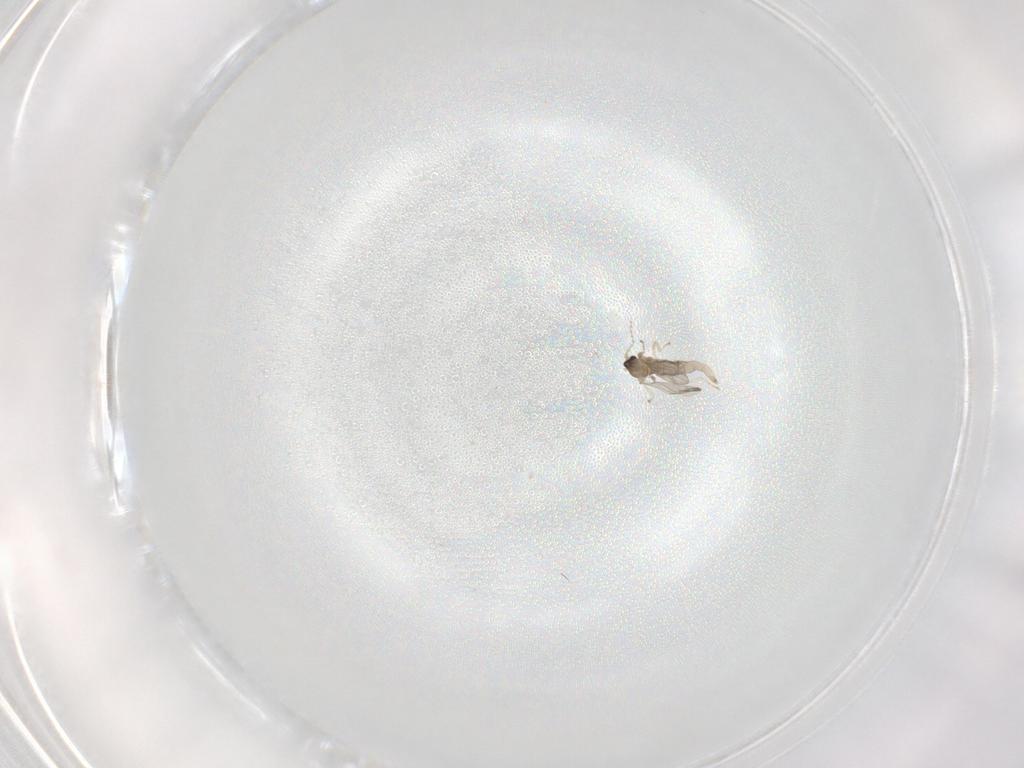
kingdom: Animalia
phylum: Arthropoda
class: Insecta
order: Diptera
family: Cecidomyiidae
